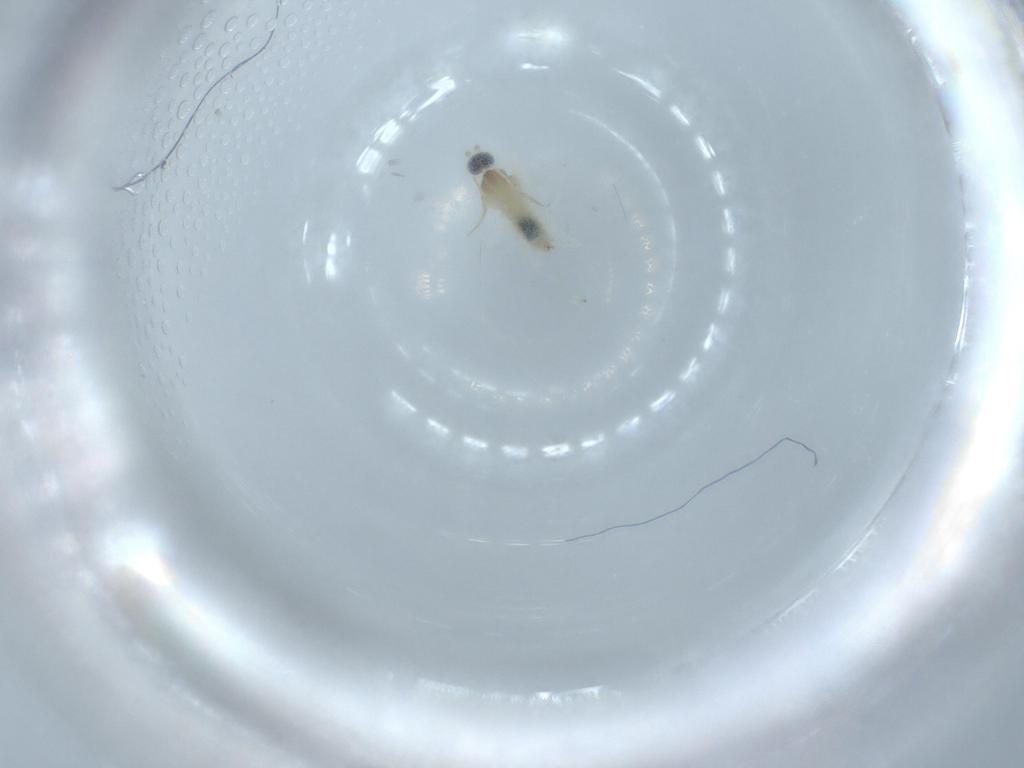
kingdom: Animalia
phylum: Arthropoda
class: Insecta
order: Diptera
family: Cecidomyiidae
